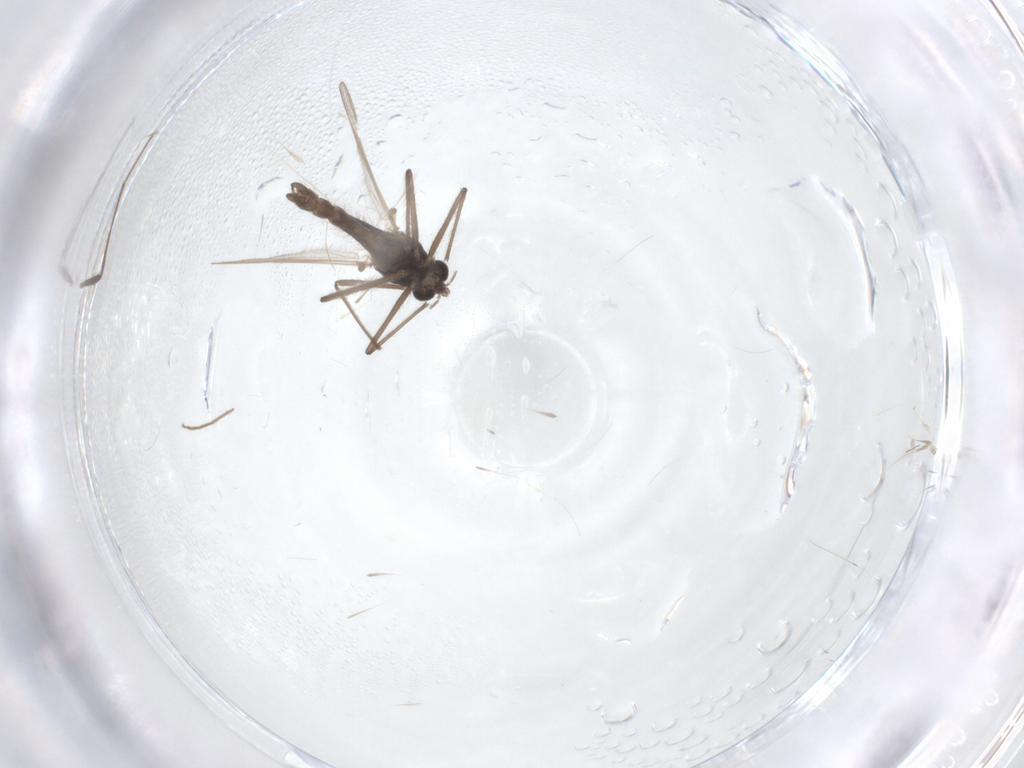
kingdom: Animalia
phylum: Arthropoda
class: Insecta
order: Diptera
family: Chironomidae
